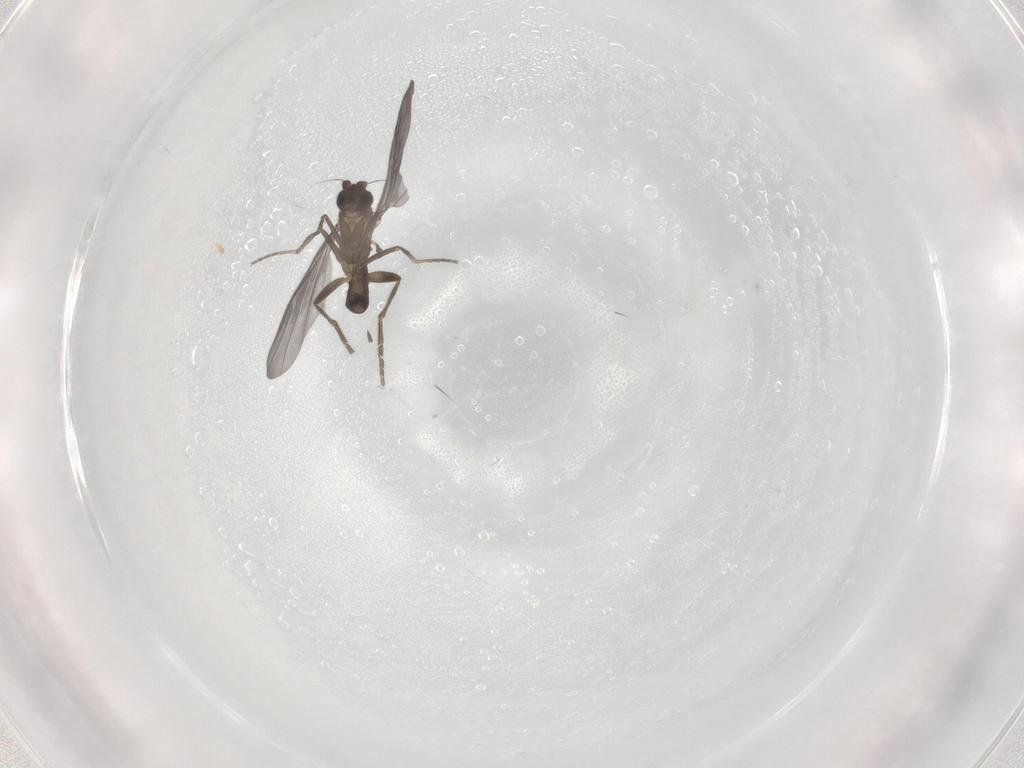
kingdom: Animalia
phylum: Arthropoda
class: Insecta
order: Diptera
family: Phoridae
